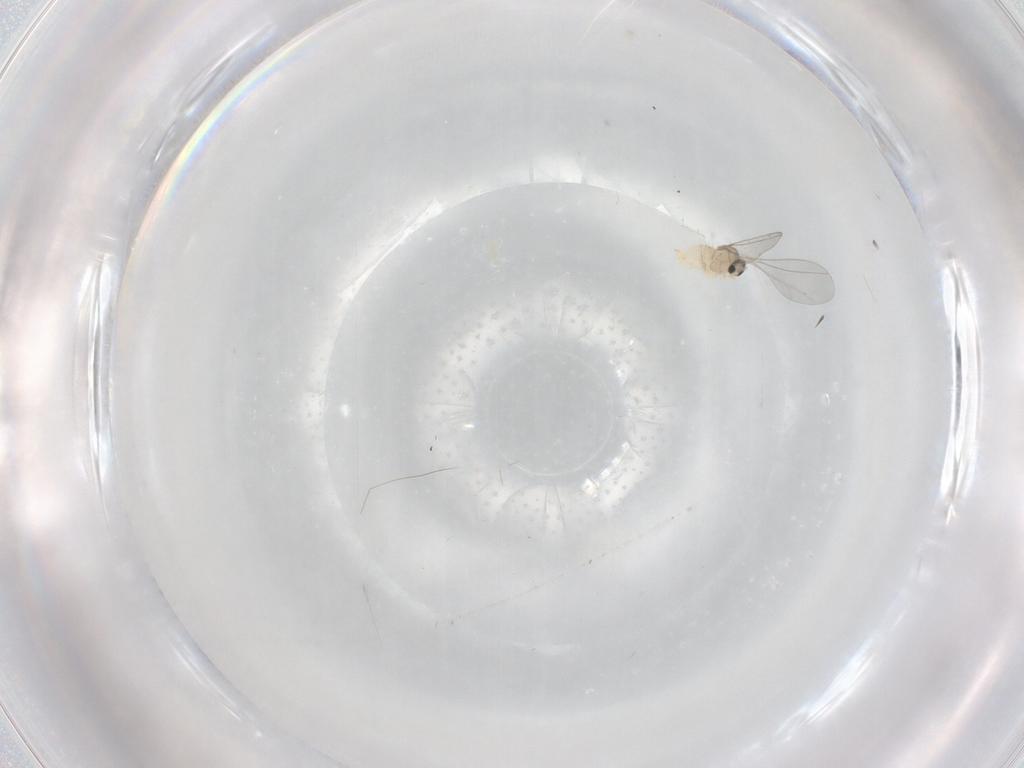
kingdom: Animalia
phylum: Arthropoda
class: Insecta
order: Diptera
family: Cecidomyiidae
